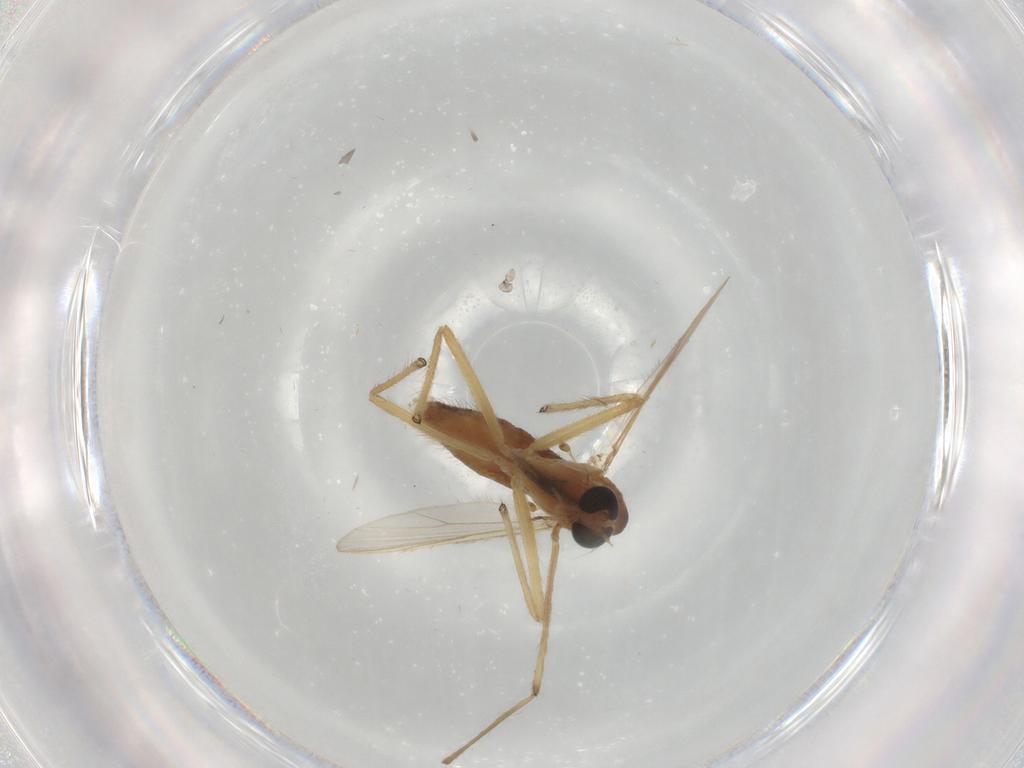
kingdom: Animalia
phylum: Arthropoda
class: Insecta
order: Diptera
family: Chironomidae
